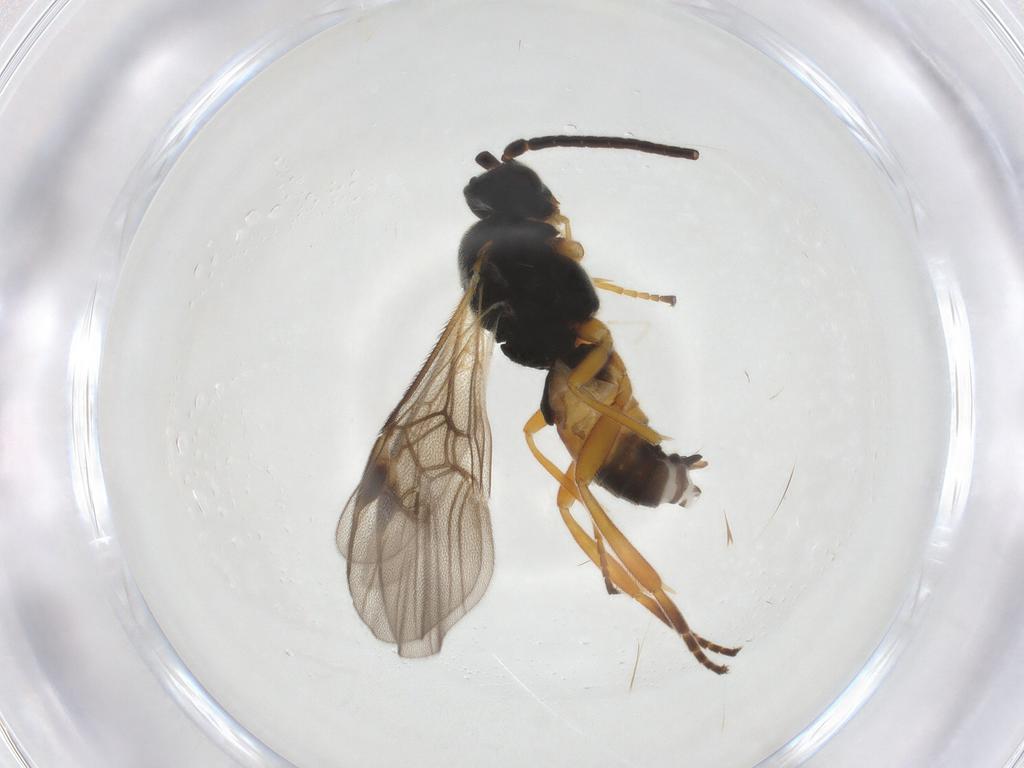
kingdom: Animalia
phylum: Arthropoda
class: Insecta
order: Hymenoptera
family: Braconidae
